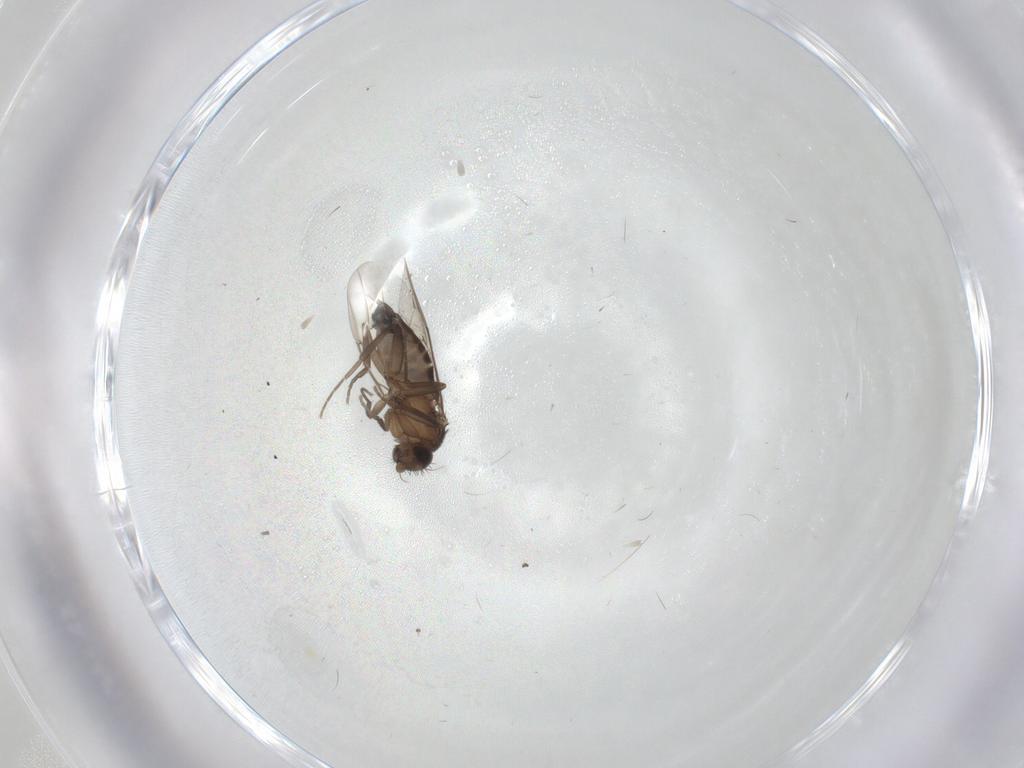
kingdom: Animalia
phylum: Arthropoda
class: Insecta
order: Diptera
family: Phoridae
